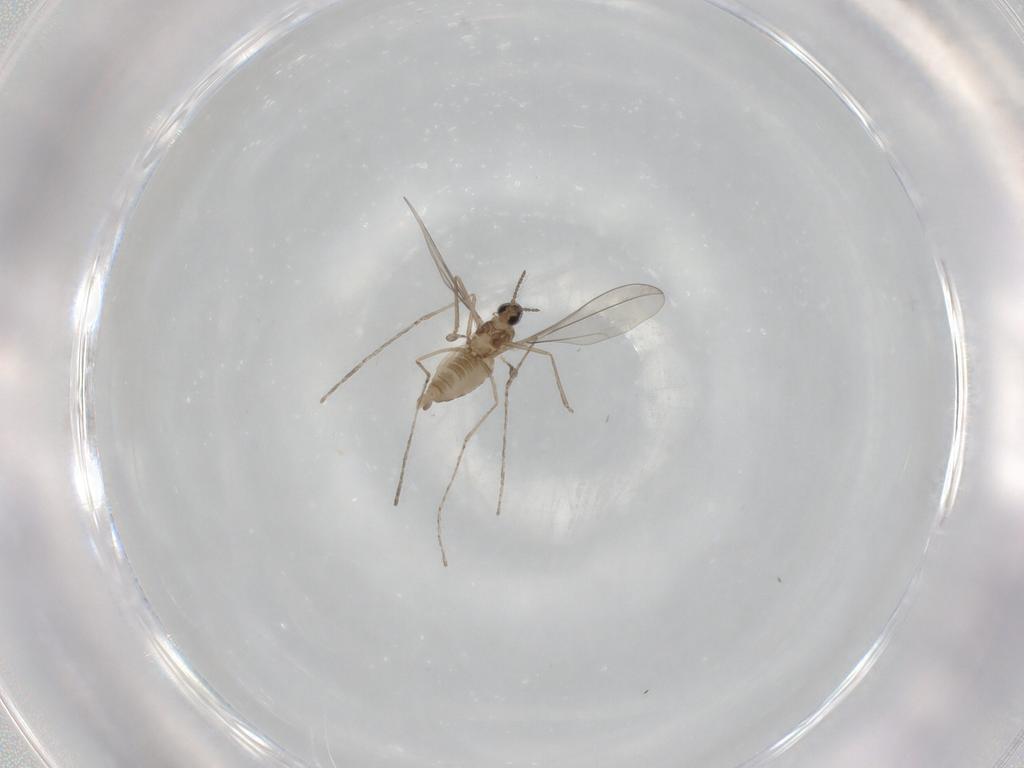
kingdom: Animalia
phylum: Arthropoda
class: Insecta
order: Diptera
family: Cecidomyiidae
